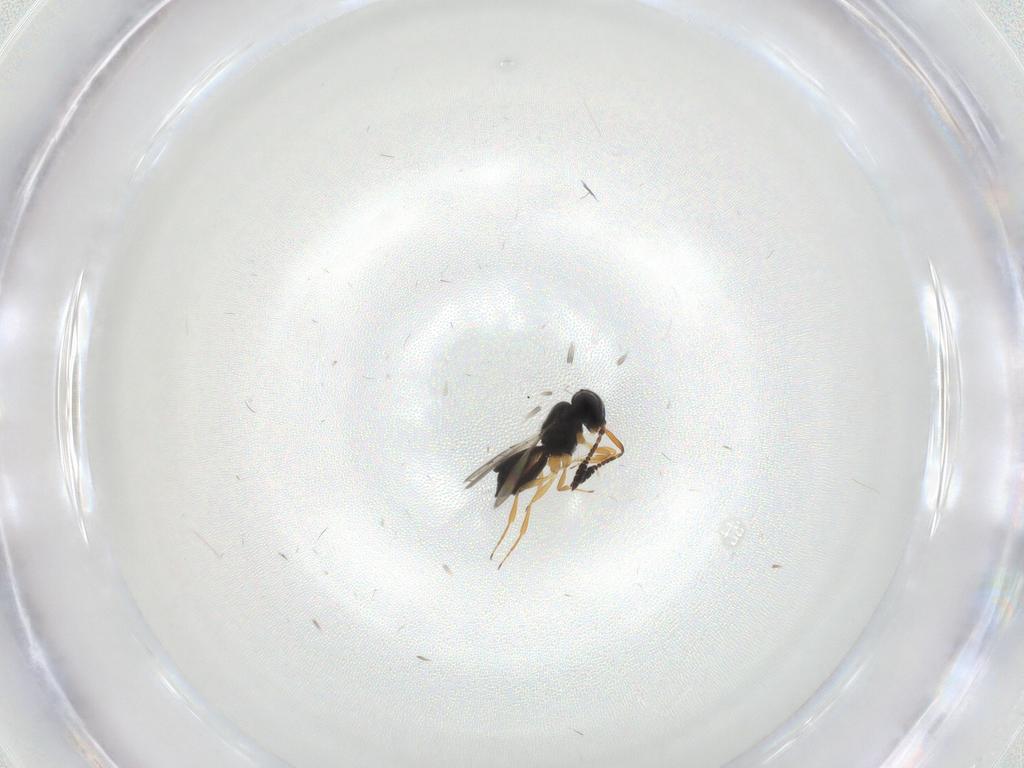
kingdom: Animalia
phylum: Arthropoda
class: Insecta
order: Hymenoptera
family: Scelionidae
